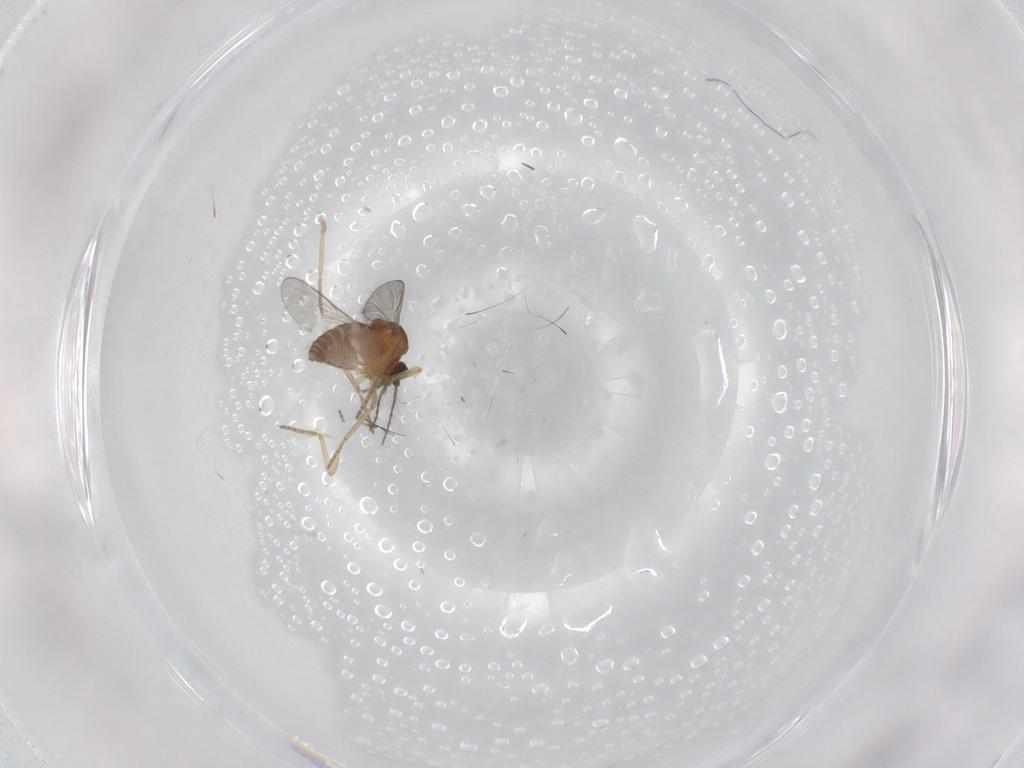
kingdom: Animalia
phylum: Arthropoda
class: Insecta
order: Diptera
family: Ceratopogonidae
